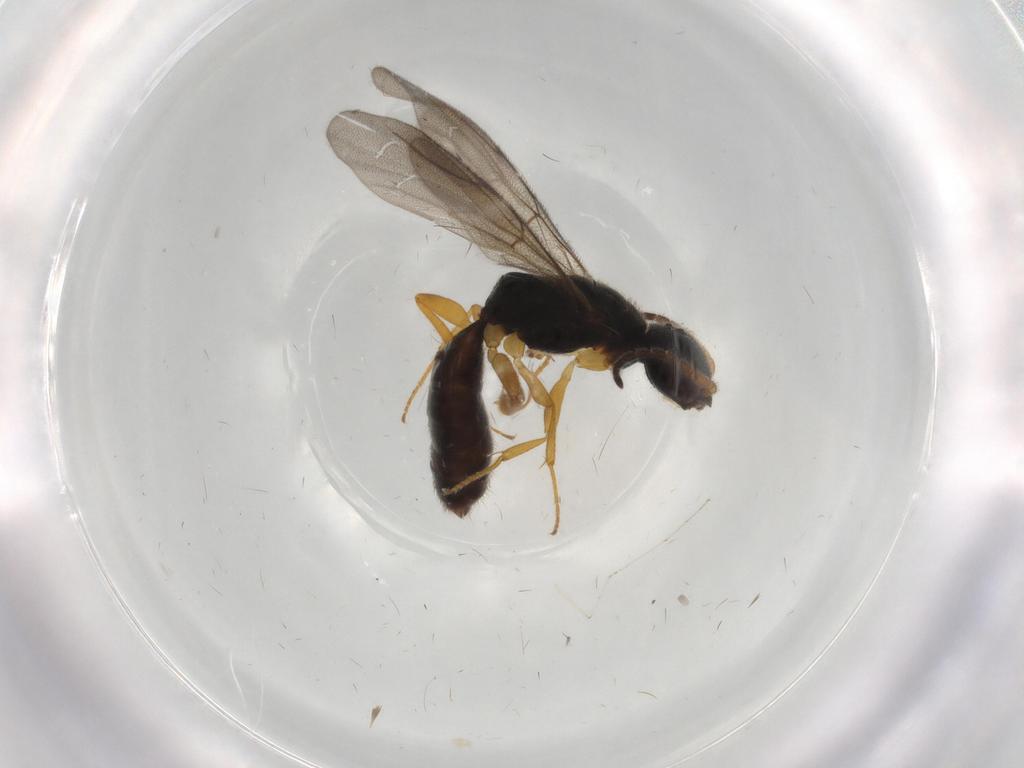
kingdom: Animalia
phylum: Arthropoda
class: Insecta
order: Hymenoptera
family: Bethylidae
